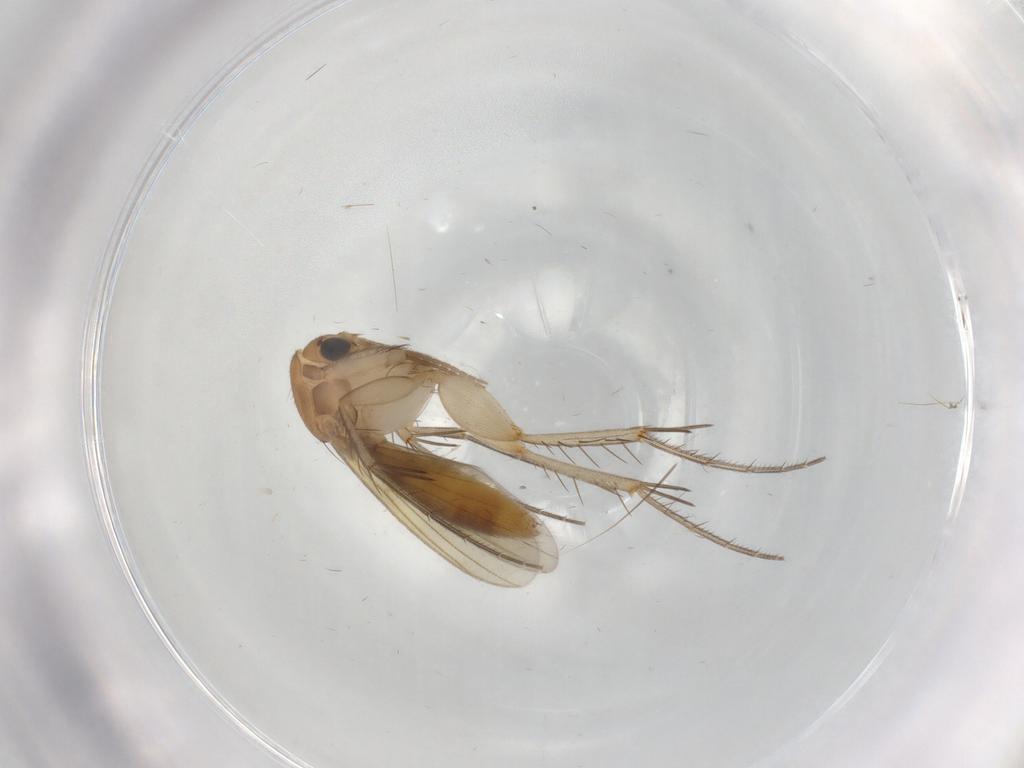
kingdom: Animalia
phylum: Arthropoda
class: Insecta
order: Diptera
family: Mycetophilidae
